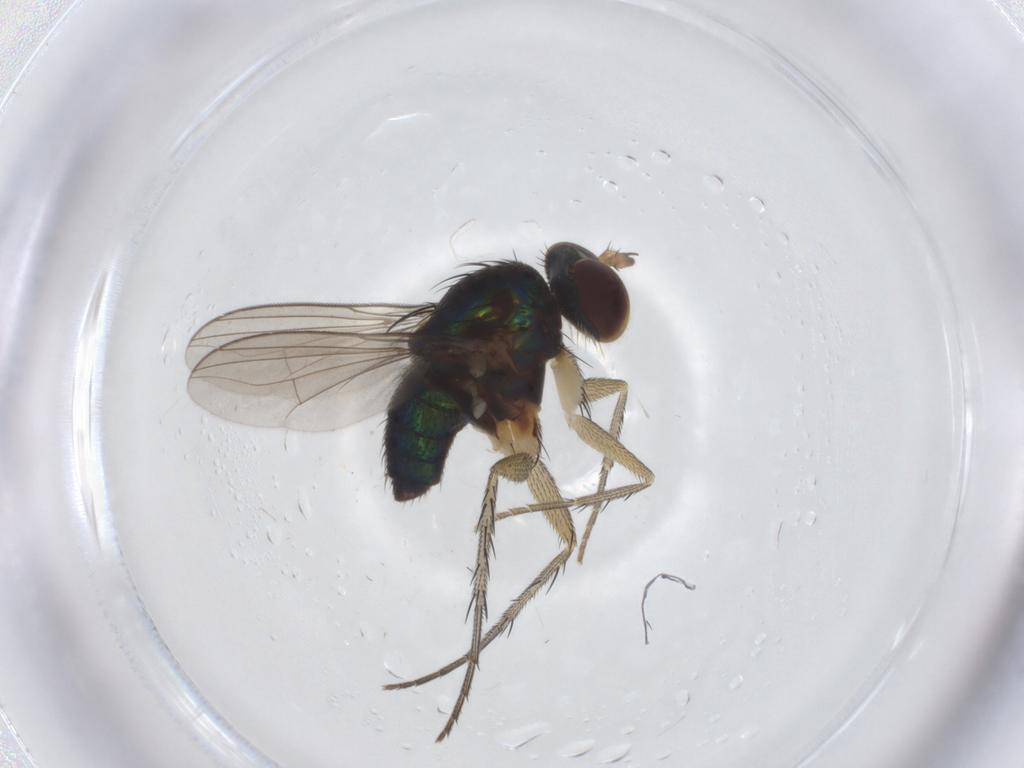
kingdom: Animalia
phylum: Arthropoda
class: Insecta
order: Diptera
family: Dolichopodidae
